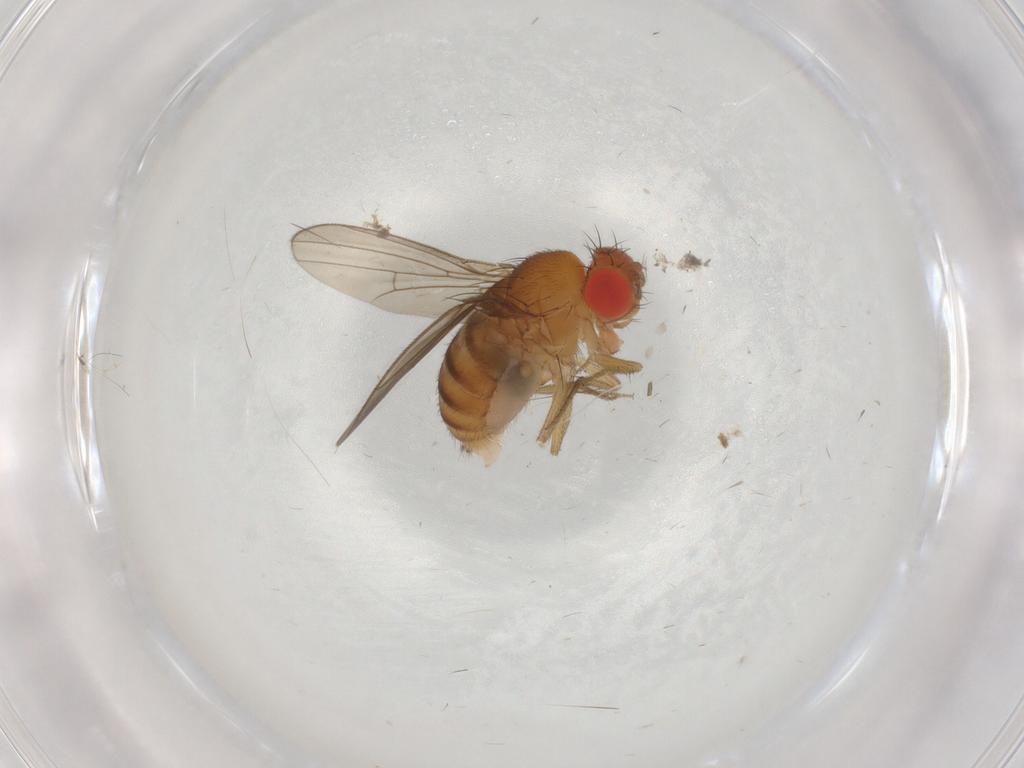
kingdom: Animalia
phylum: Arthropoda
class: Insecta
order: Diptera
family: Drosophilidae
